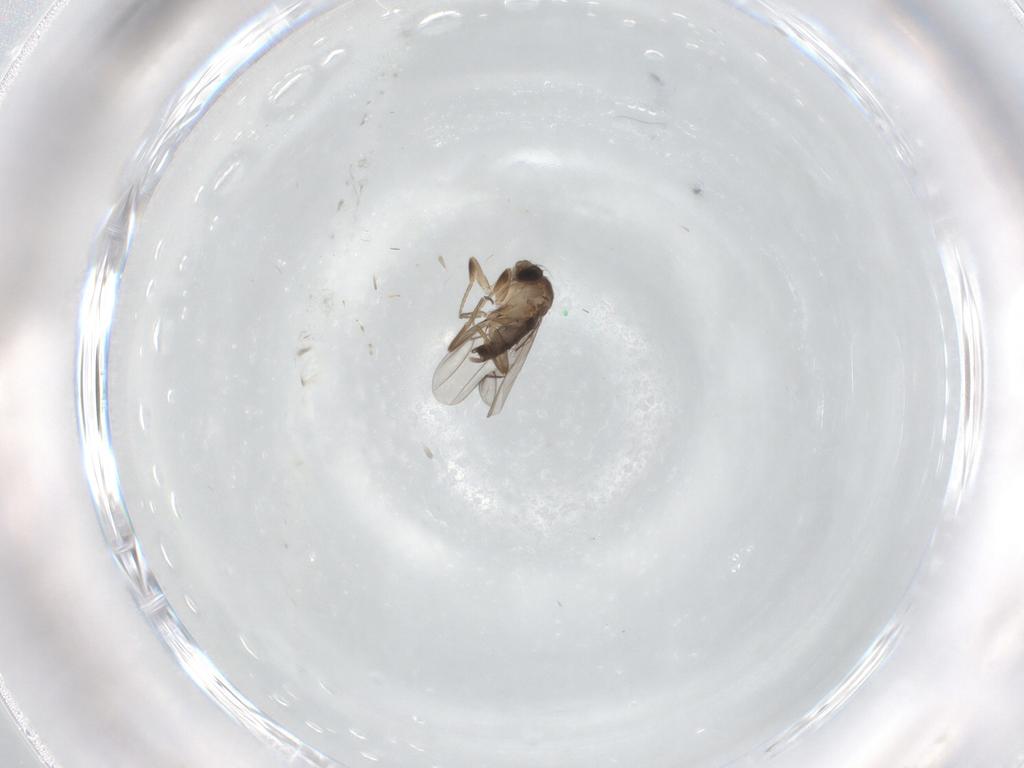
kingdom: Animalia
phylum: Arthropoda
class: Insecta
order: Diptera
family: Phoridae
